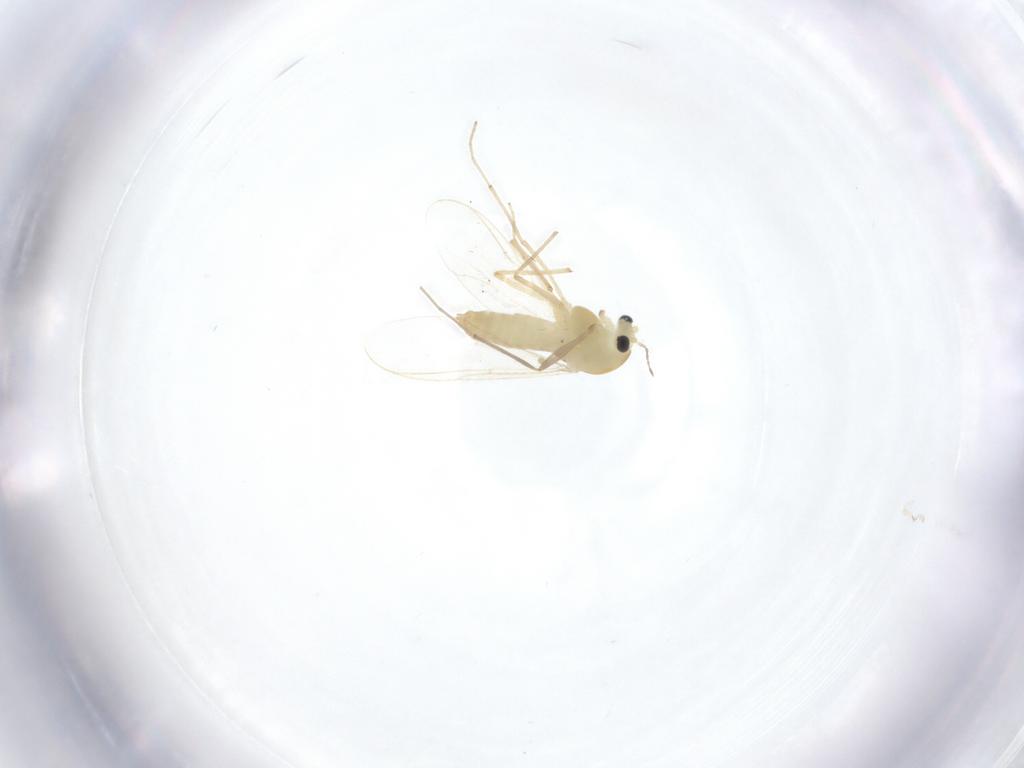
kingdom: Animalia
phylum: Arthropoda
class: Insecta
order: Diptera
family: Chironomidae
